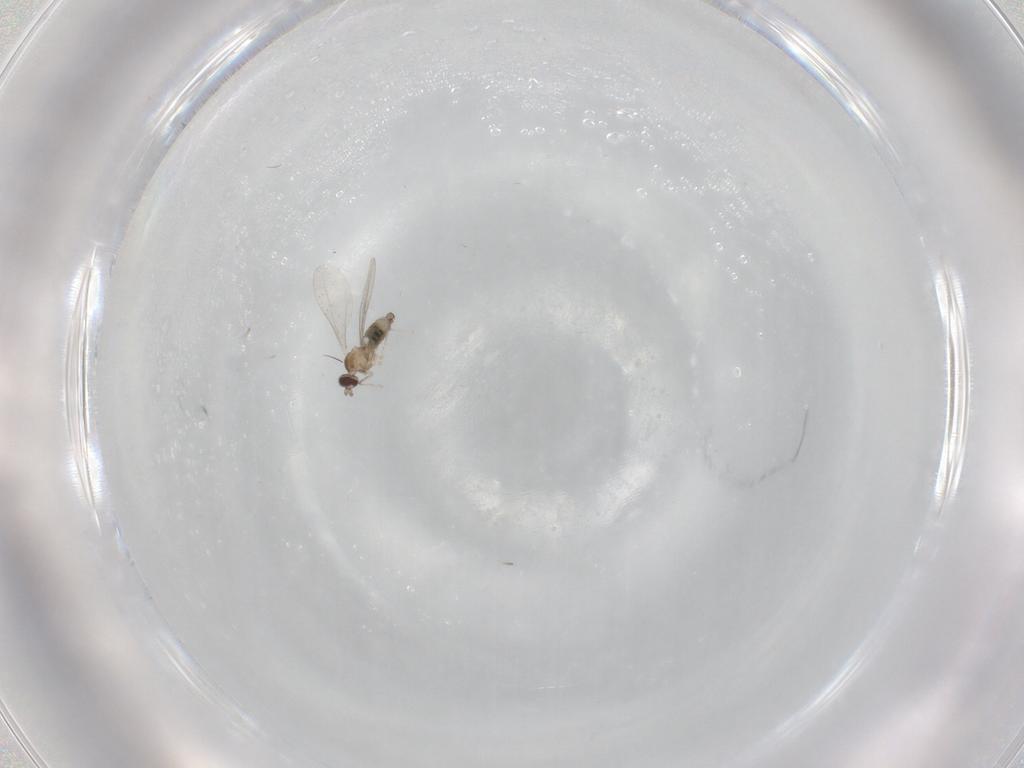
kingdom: Animalia
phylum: Arthropoda
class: Insecta
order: Diptera
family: Cecidomyiidae
